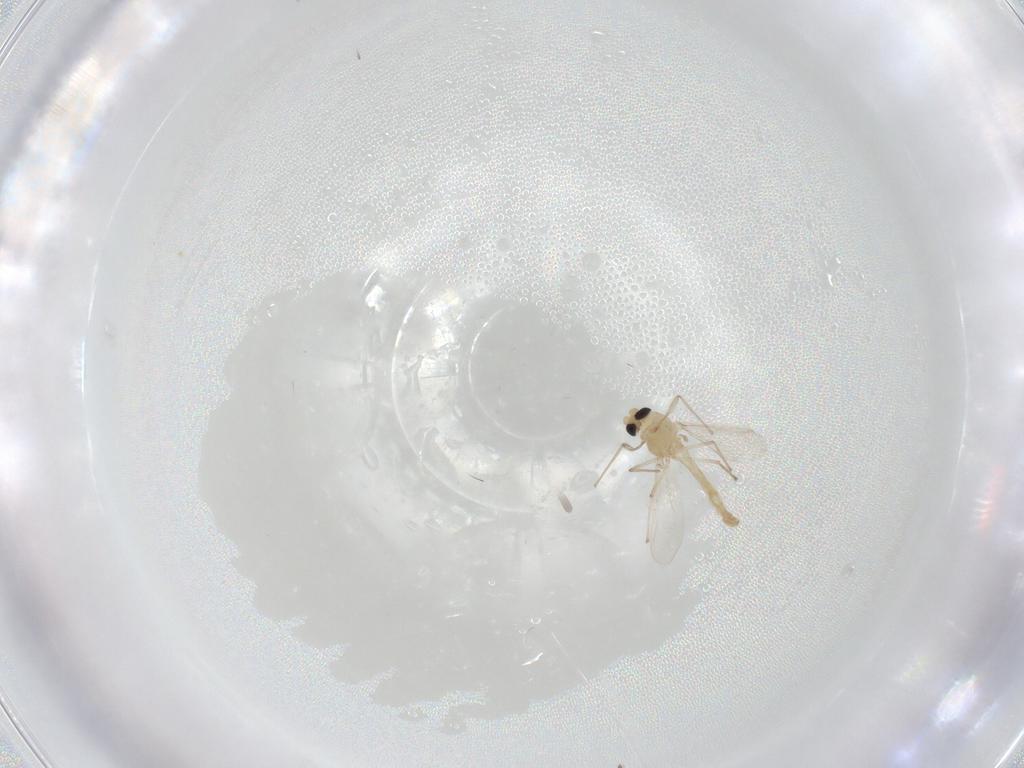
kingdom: Animalia
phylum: Arthropoda
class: Insecta
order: Diptera
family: Cecidomyiidae
